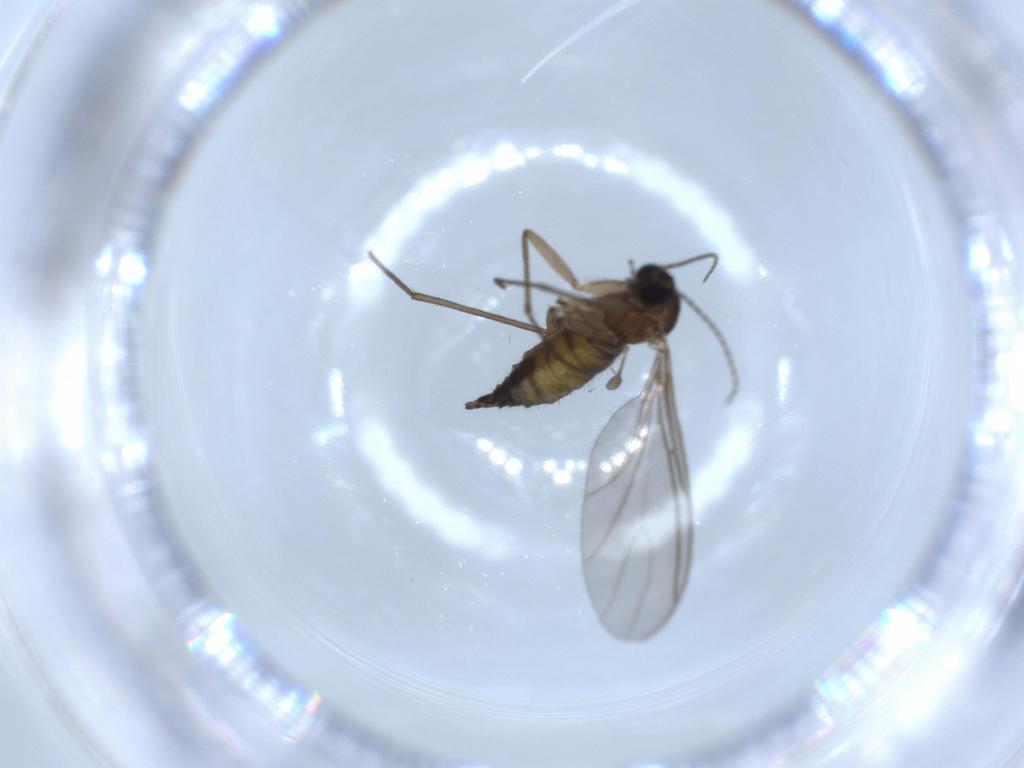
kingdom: Animalia
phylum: Arthropoda
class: Insecta
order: Diptera
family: Sciaridae
